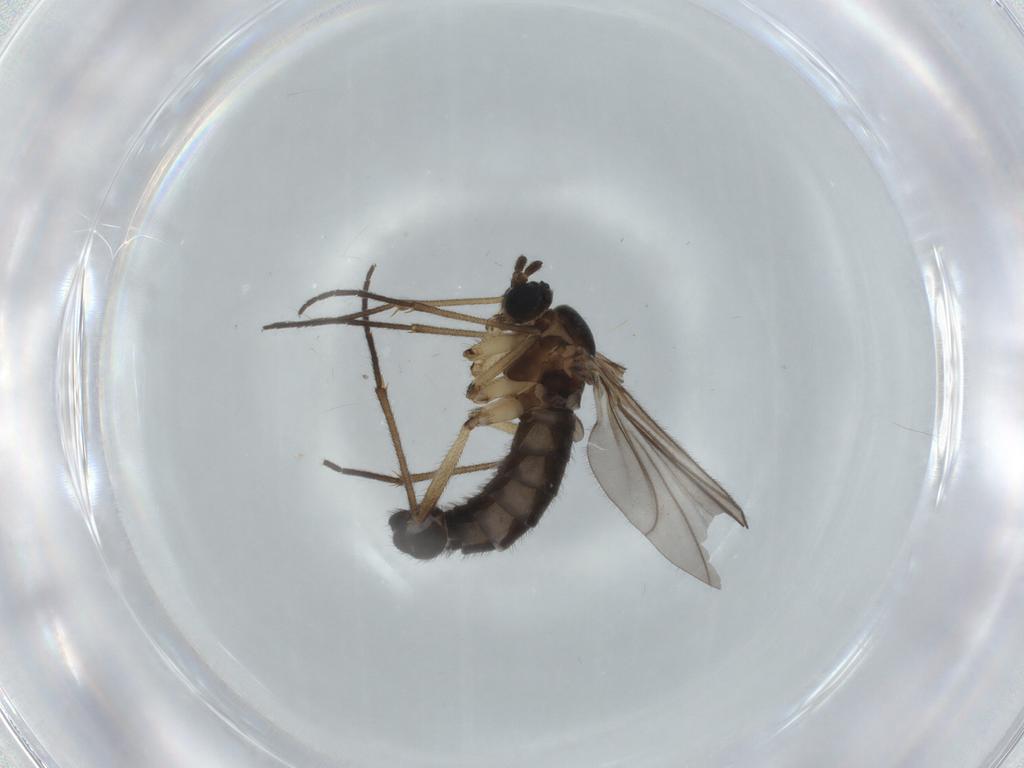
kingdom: Animalia
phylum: Arthropoda
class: Insecta
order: Diptera
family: Sciaridae
